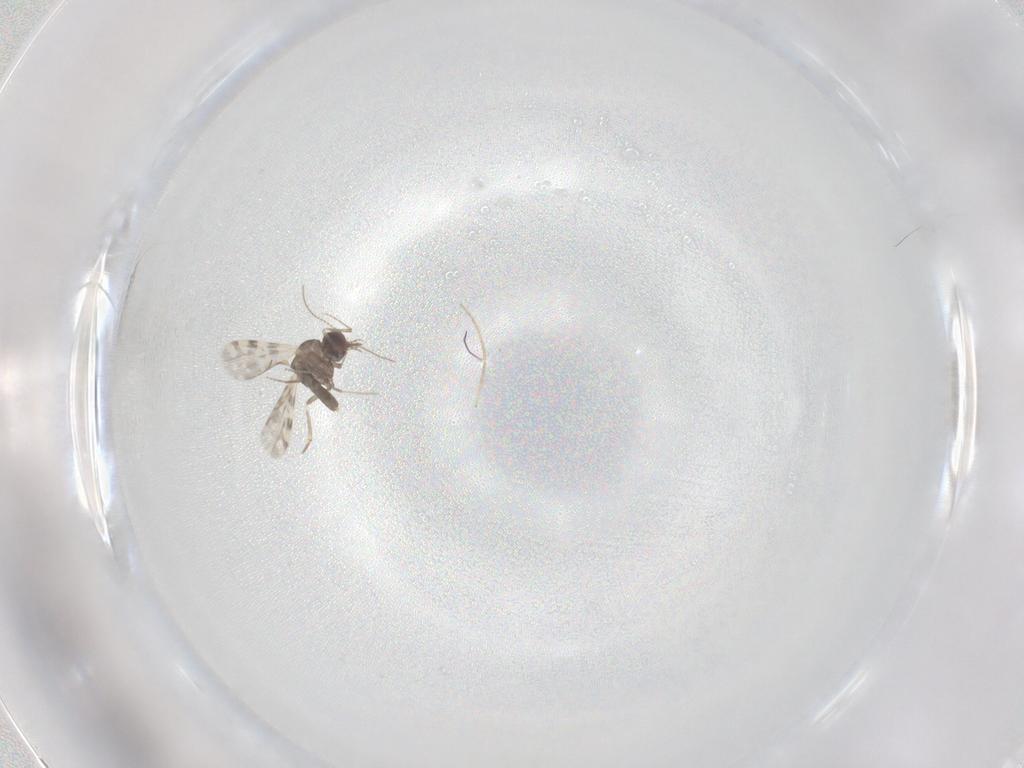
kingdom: Animalia
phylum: Arthropoda
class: Insecta
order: Diptera
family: Ceratopogonidae
